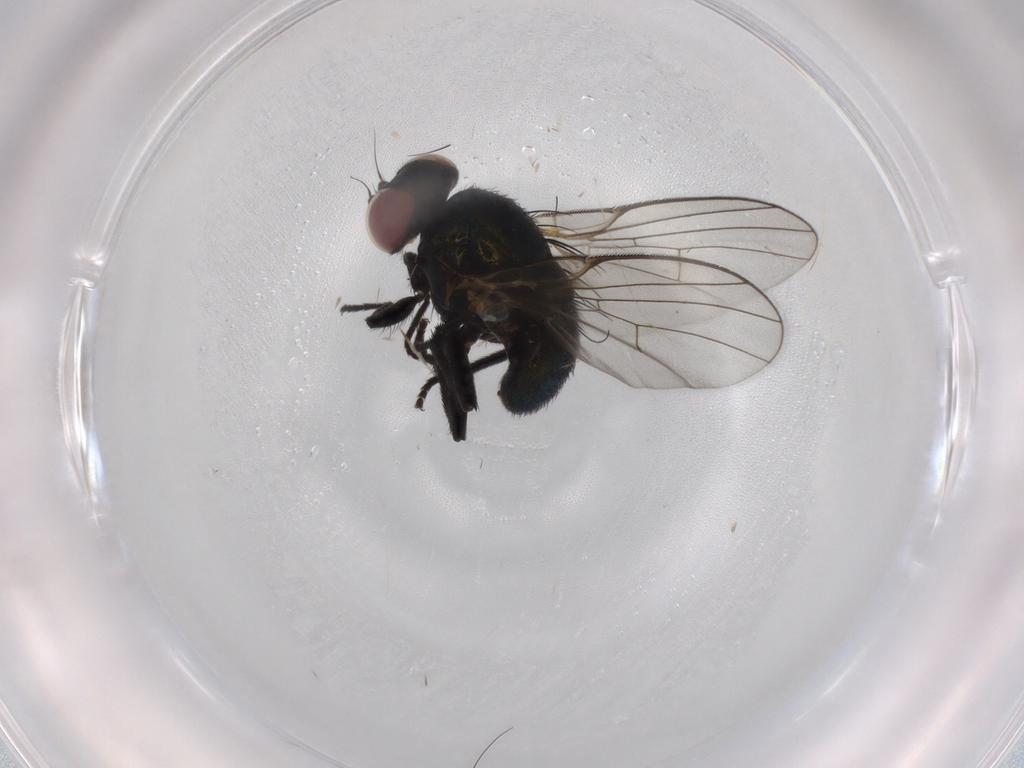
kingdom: Animalia
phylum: Arthropoda
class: Insecta
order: Diptera
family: Agromyzidae
